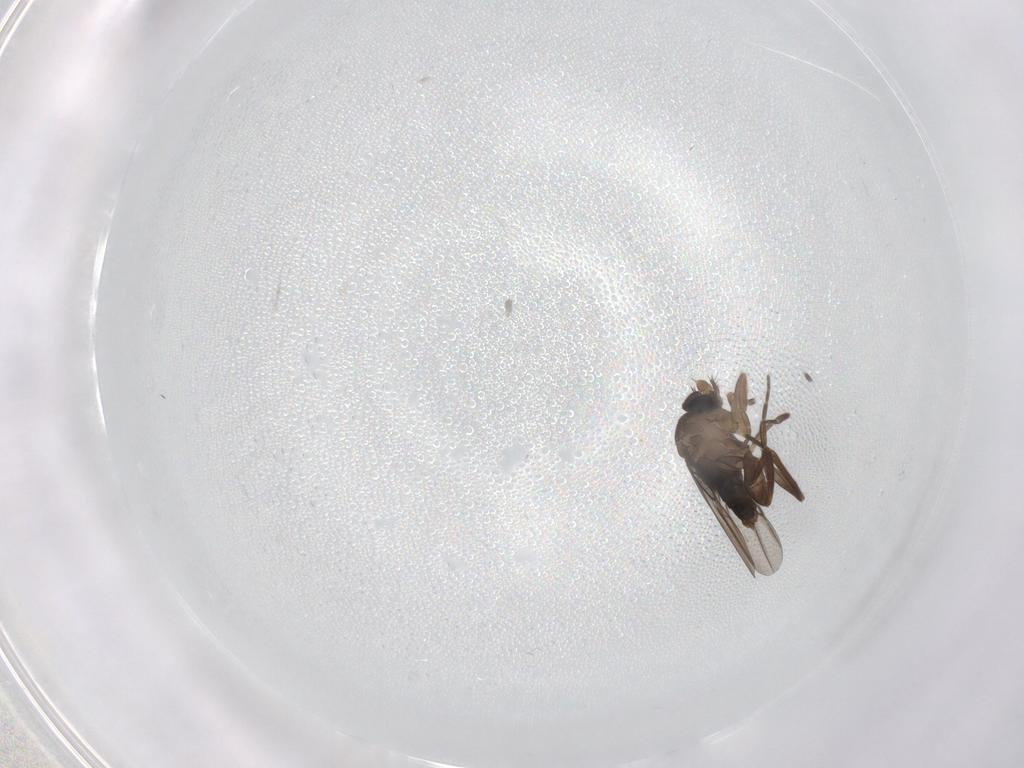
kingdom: Animalia
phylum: Arthropoda
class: Insecta
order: Diptera
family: Phoridae
